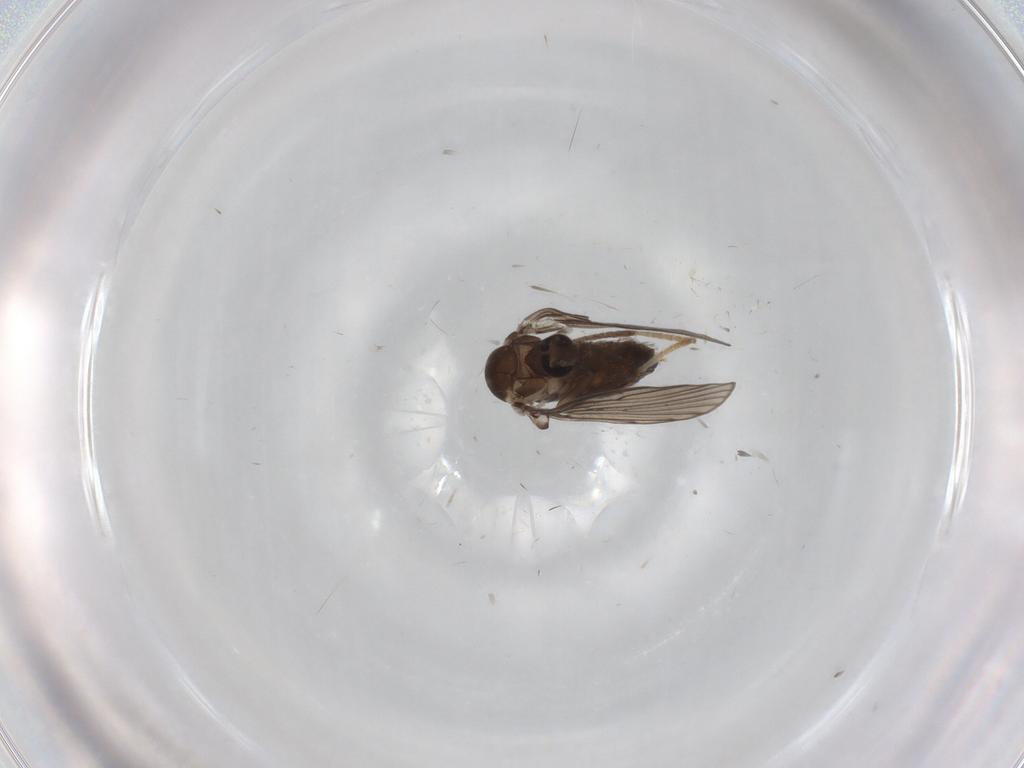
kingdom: Animalia
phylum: Arthropoda
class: Insecta
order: Diptera
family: Psychodidae
